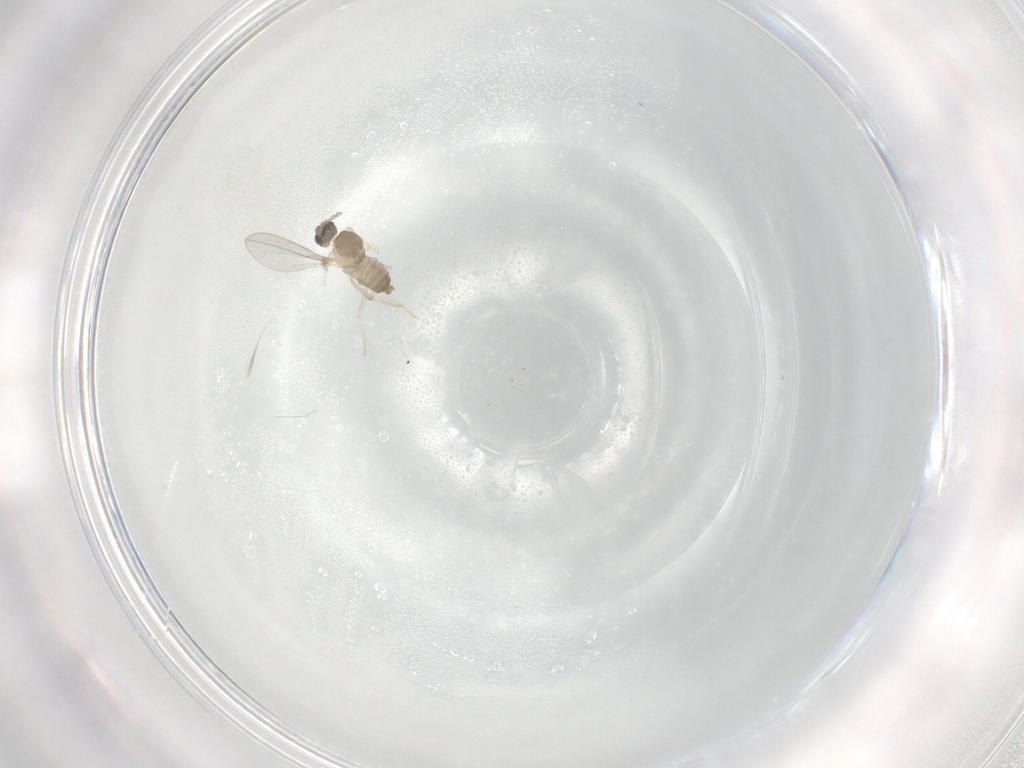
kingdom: Animalia
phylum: Arthropoda
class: Insecta
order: Diptera
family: Cecidomyiidae
